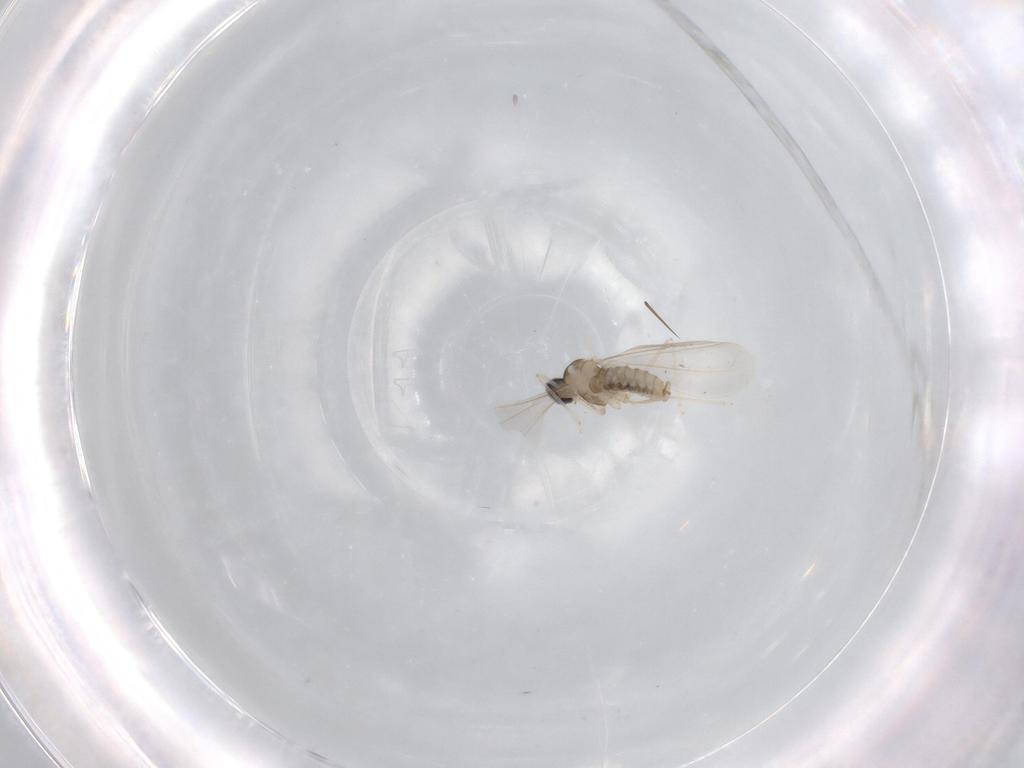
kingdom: Animalia
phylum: Arthropoda
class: Insecta
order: Diptera
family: Cecidomyiidae
